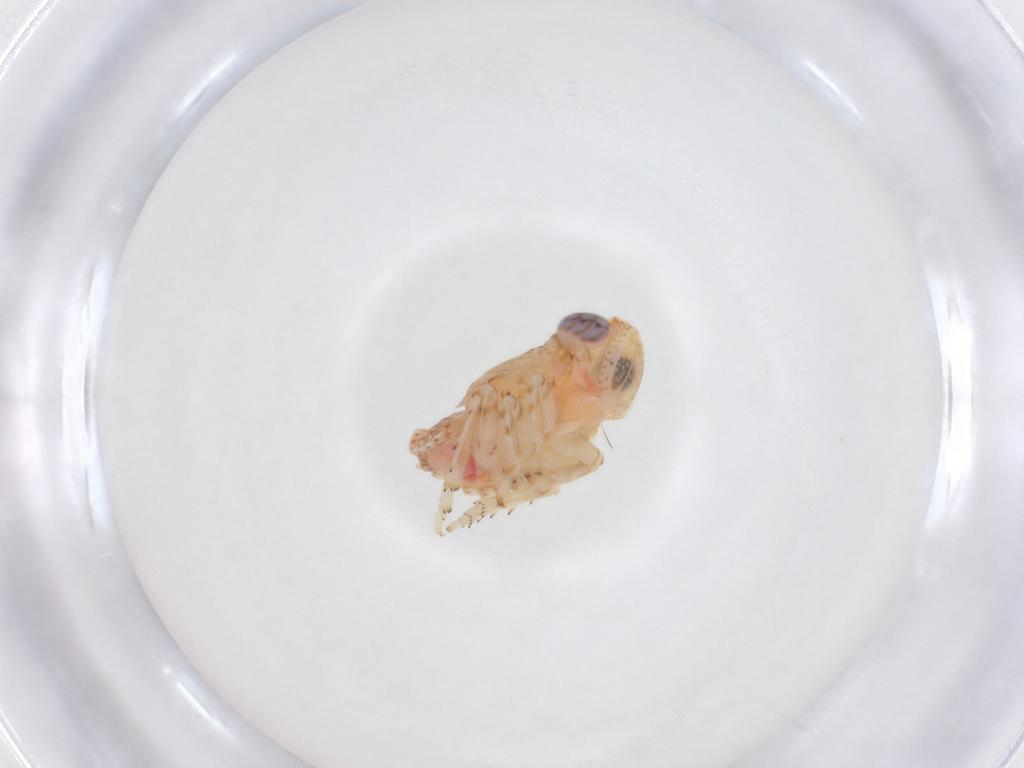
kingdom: Animalia
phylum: Arthropoda
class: Insecta
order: Hemiptera
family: Issidae
